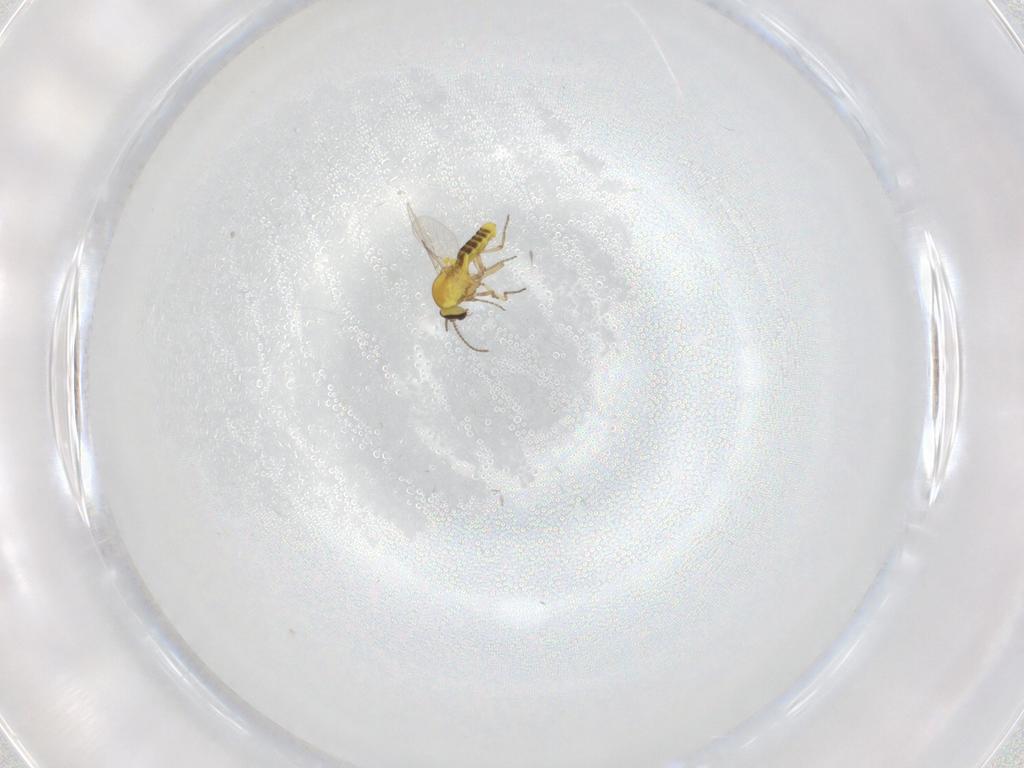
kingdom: Animalia
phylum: Arthropoda
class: Insecta
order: Diptera
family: Ceratopogonidae
